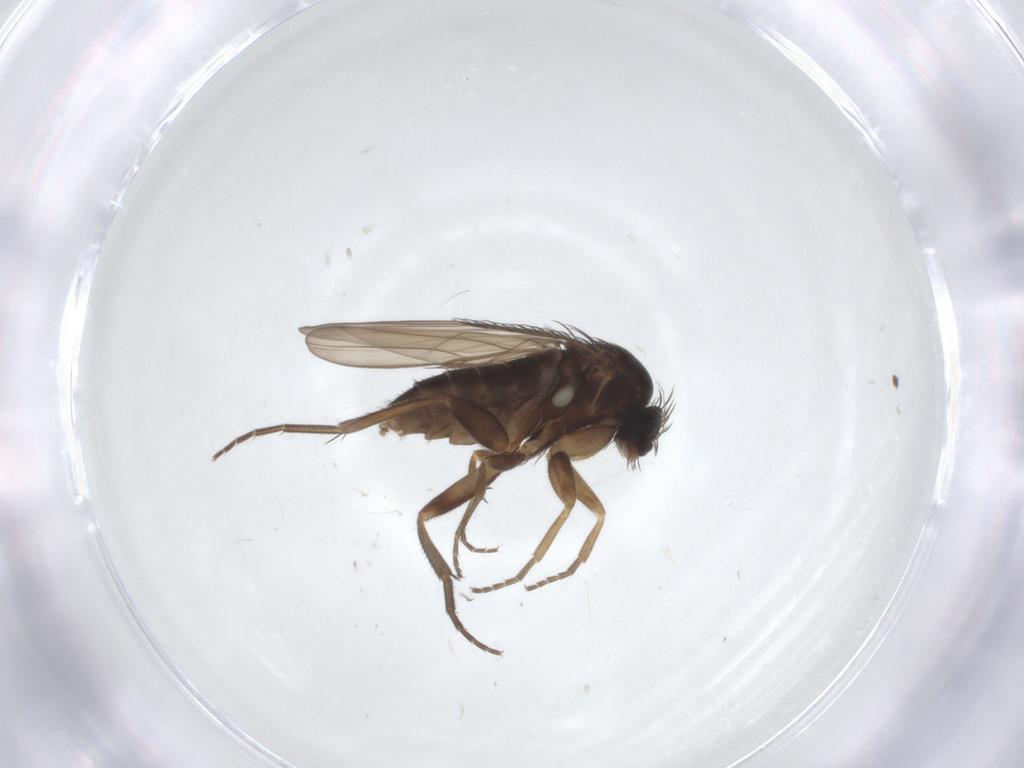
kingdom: Animalia
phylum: Arthropoda
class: Insecta
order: Diptera
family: Phoridae
